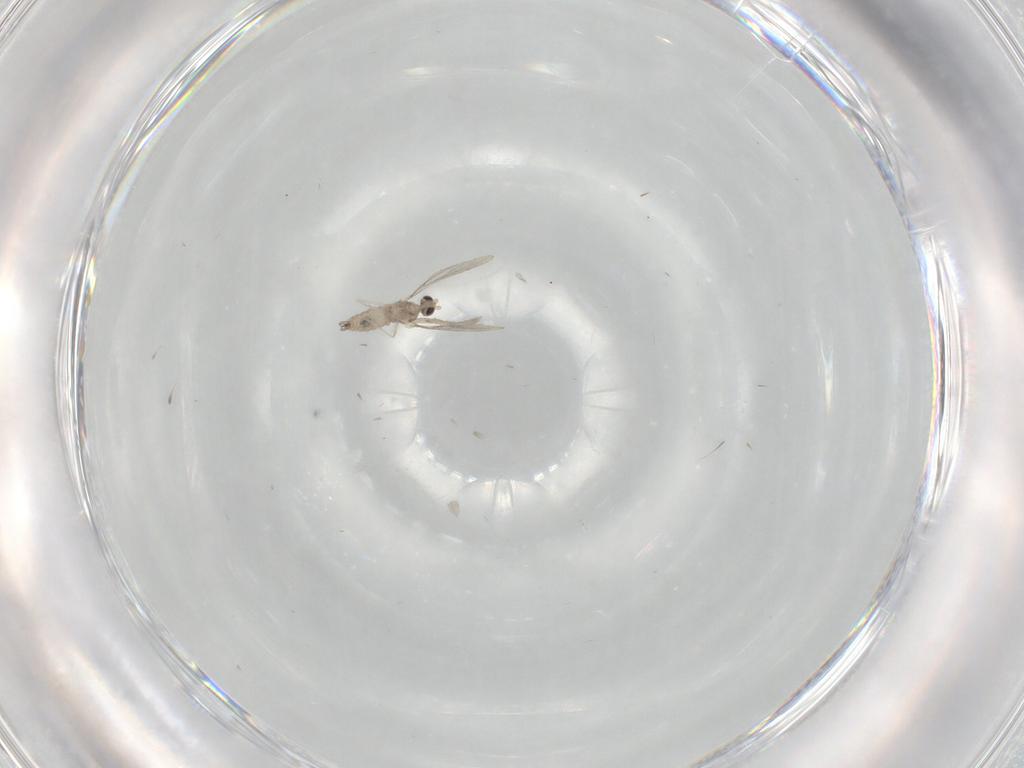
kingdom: Animalia
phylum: Arthropoda
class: Insecta
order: Diptera
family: Cecidomyiidae
